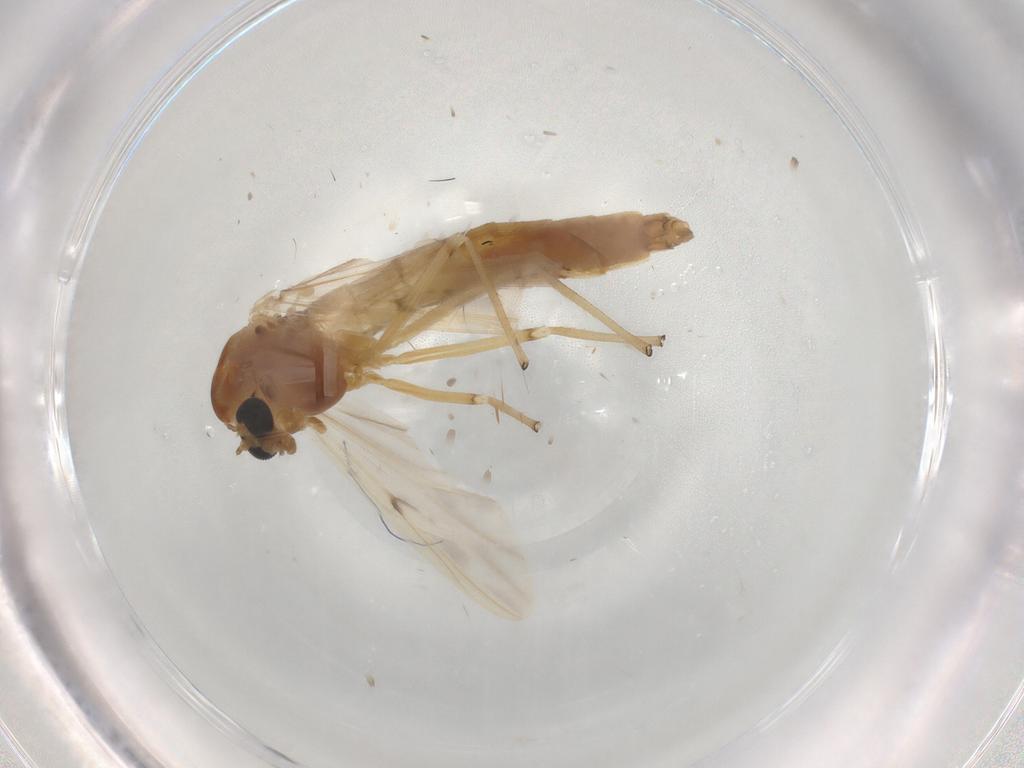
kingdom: Animalia
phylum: Arthropoda
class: Insecta
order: Diptera
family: Chironomidae
